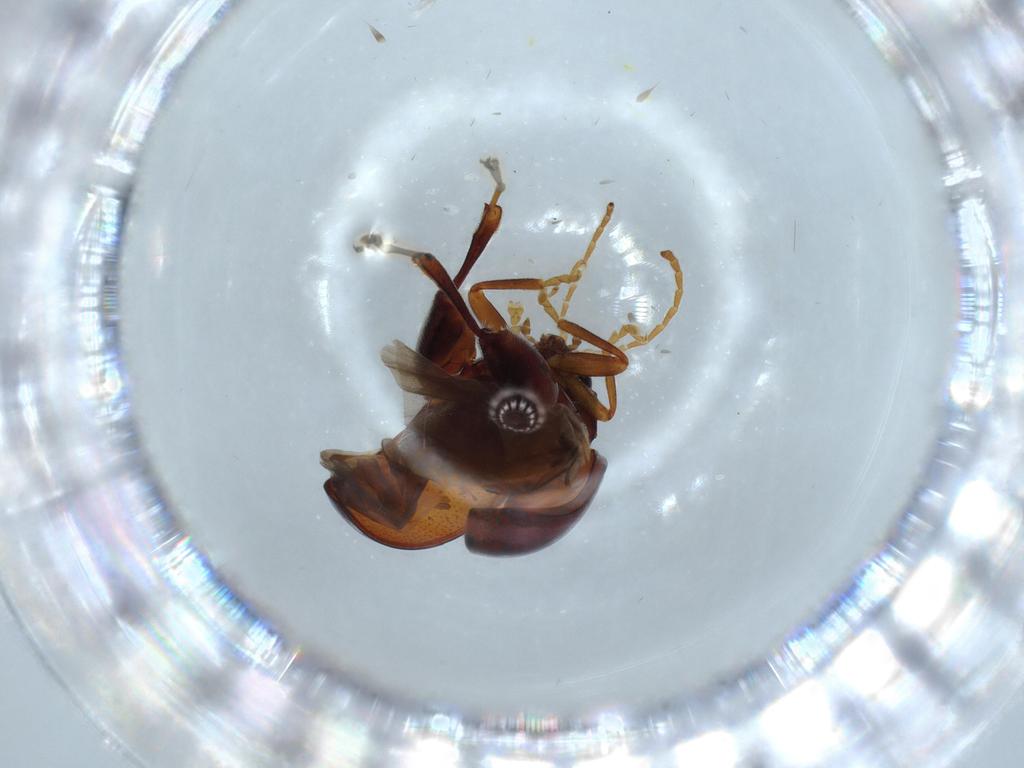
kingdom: Animalia
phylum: Arthropoda
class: Insecta
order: Coleoptera
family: Chrysomelidae
